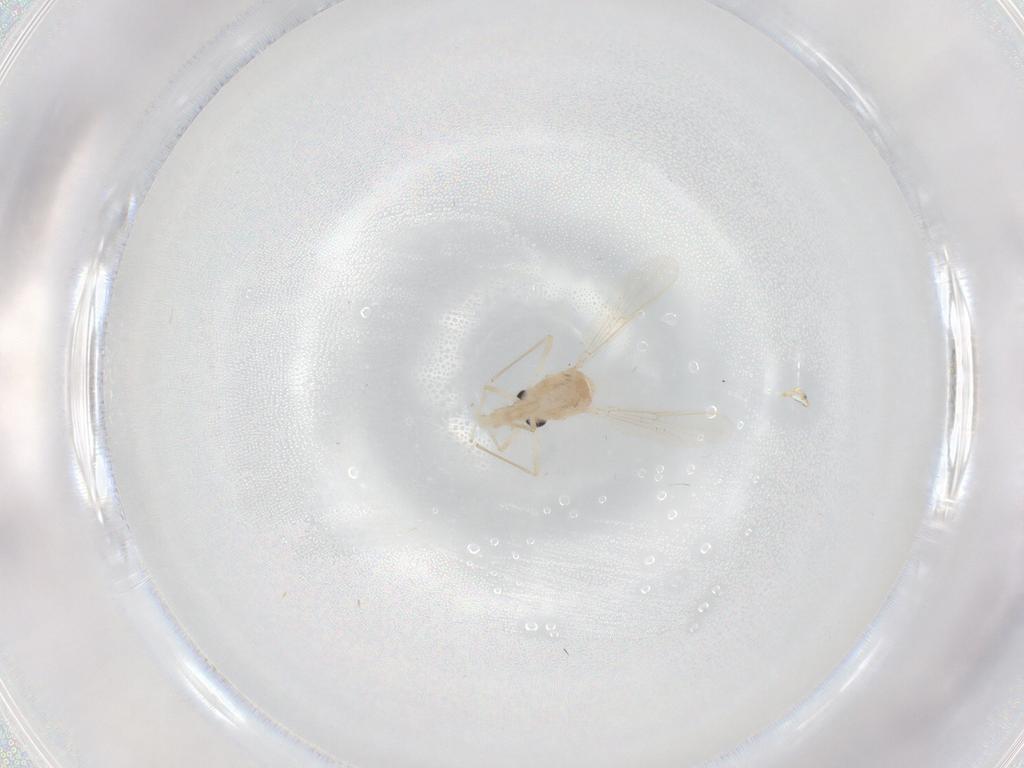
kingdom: Animalia
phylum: Arthropoda
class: Insecta
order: Diptera
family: Chironomidae
